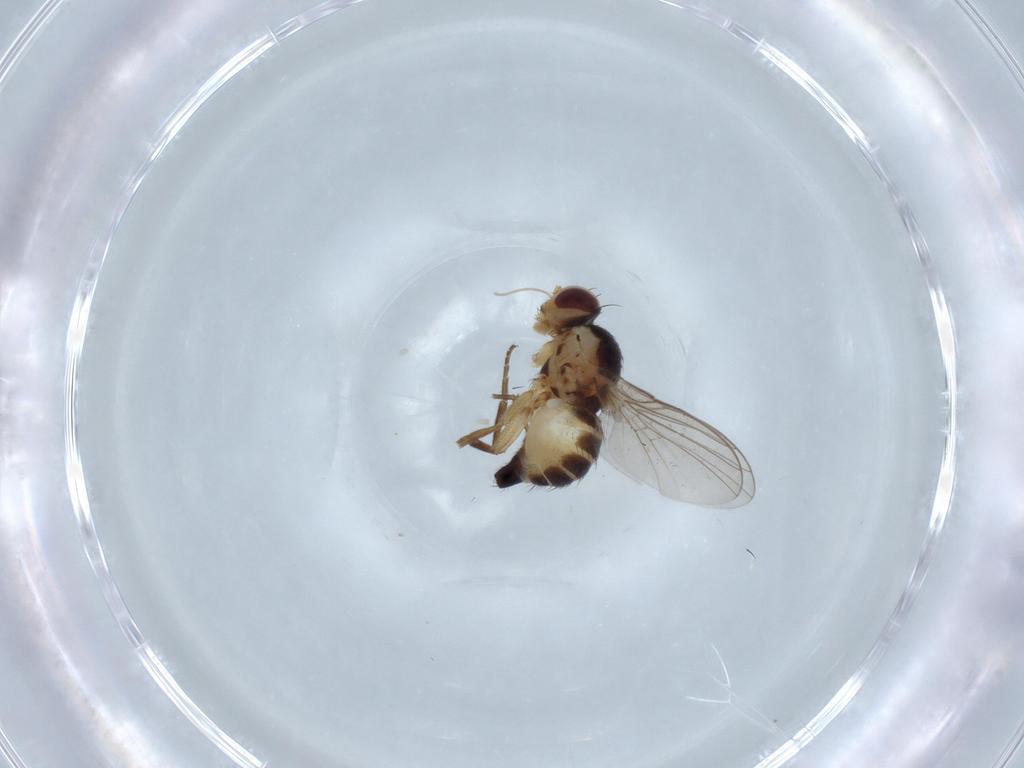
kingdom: Animalia
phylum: Arthropoda
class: Insecta
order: Diptera
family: Agromyzidae
